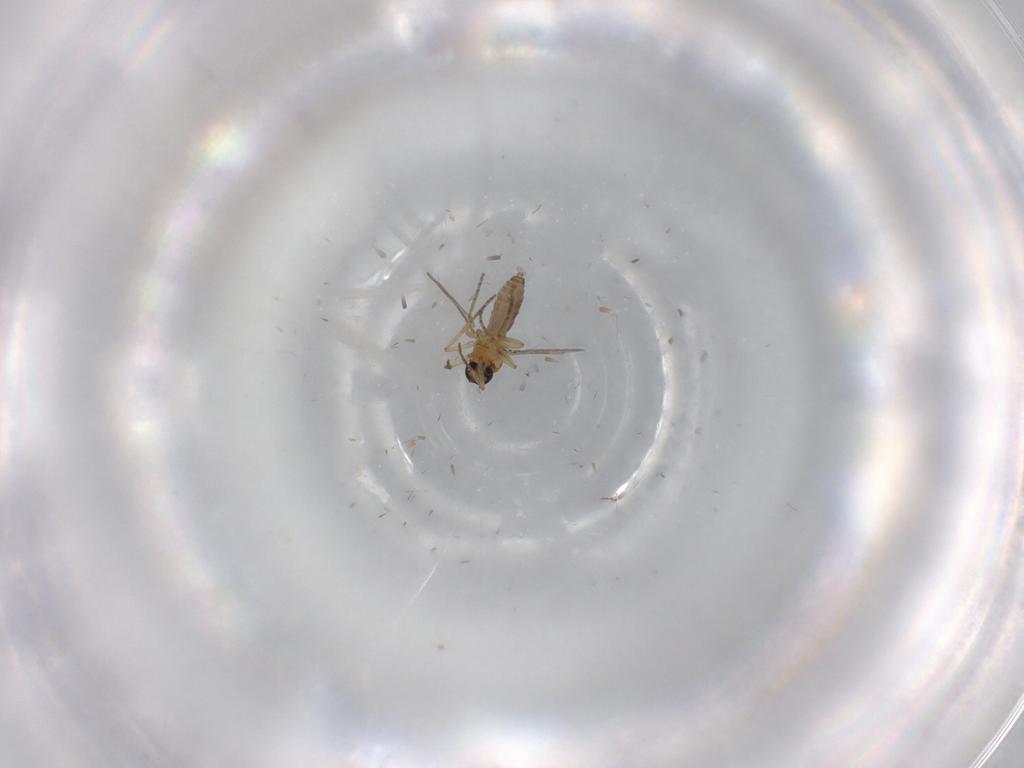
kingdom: Animalia
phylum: Arthropoda
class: Insecta
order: Diptera
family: Ceratopogonidae
